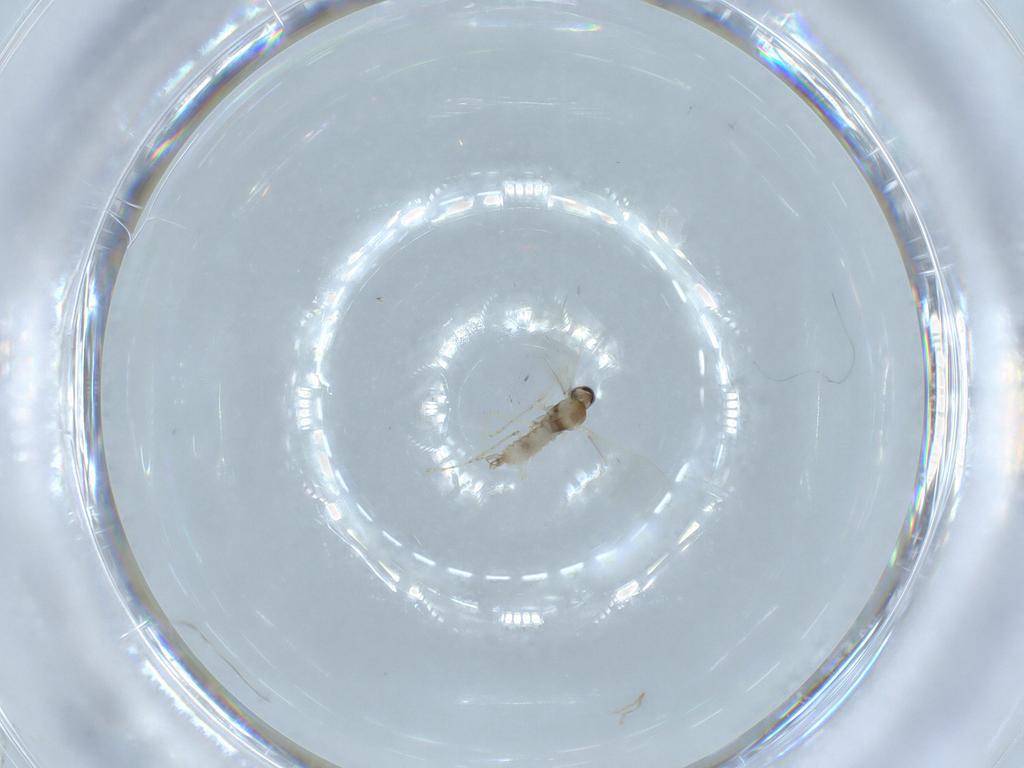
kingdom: Animalia
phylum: Arthropoda
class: Insecta
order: Diptera
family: Cecidomyiidae
